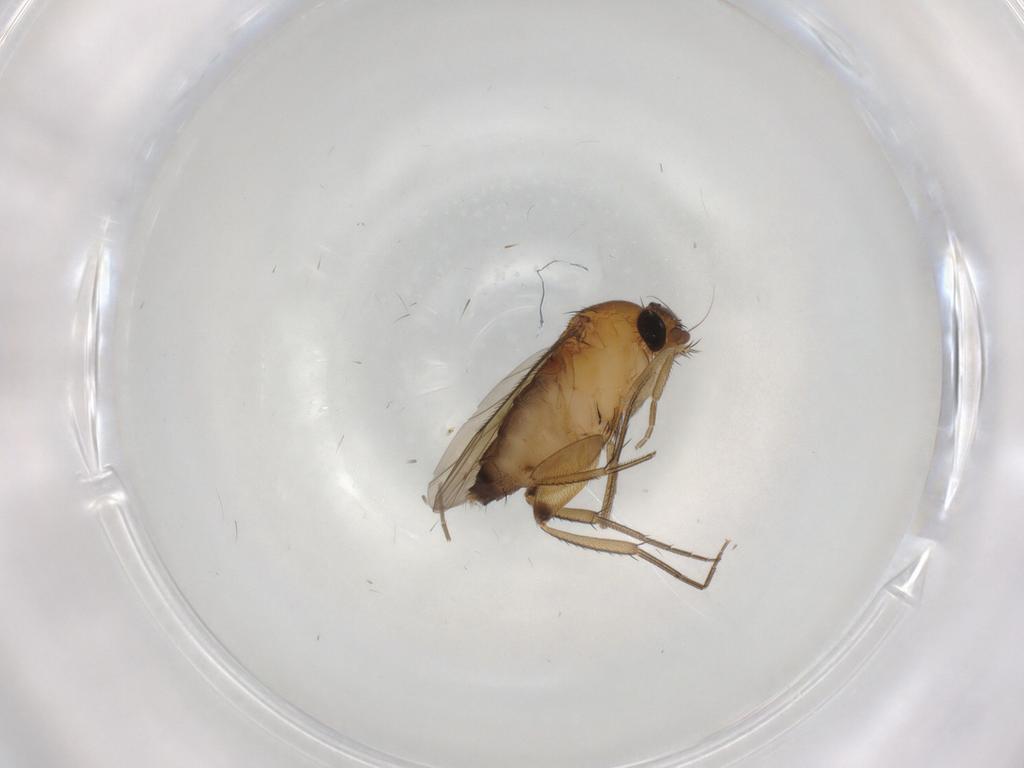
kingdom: Animalia
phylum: Arthropoda
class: Insecta
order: Diptera
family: Phoridae
